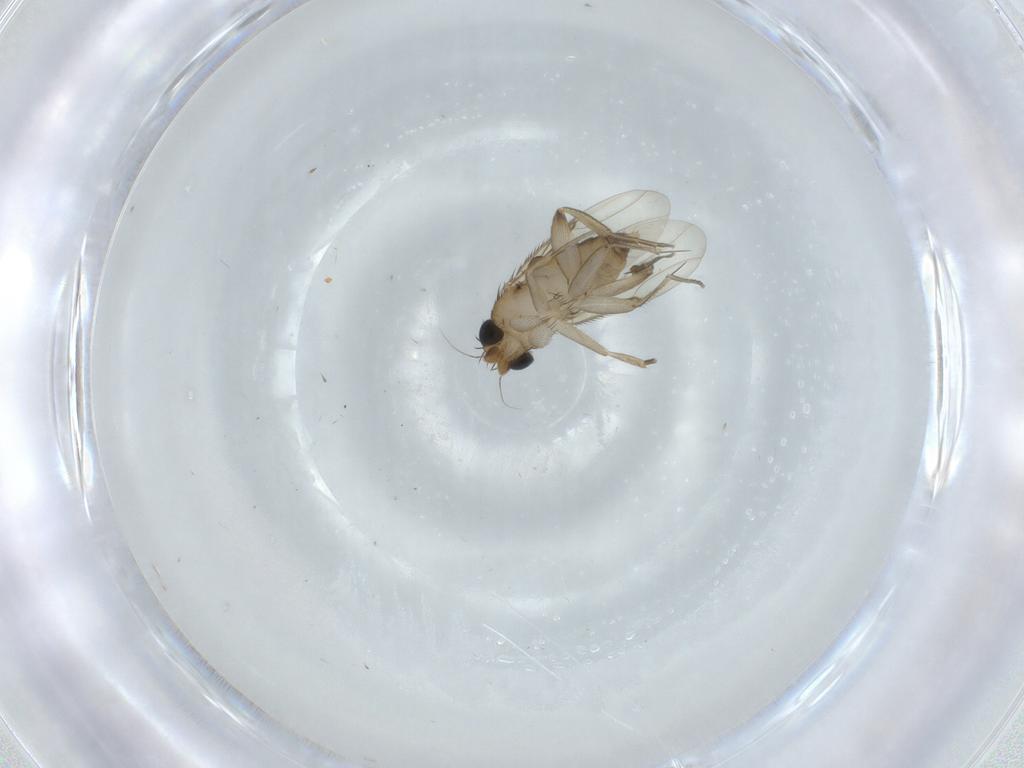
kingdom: Animalia
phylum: Arthropoda
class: Insecta
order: Diptera
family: Phoridae
